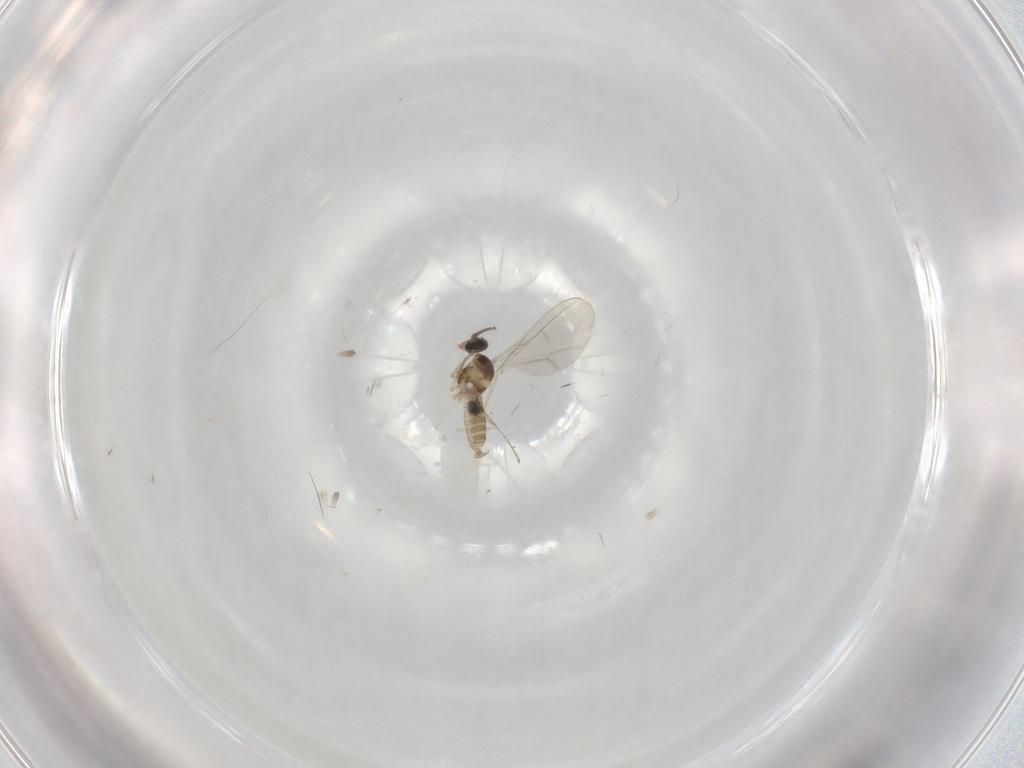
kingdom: Animalia
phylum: Arthropoda
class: Insecta
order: Diptera
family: Cecidomyiidae
